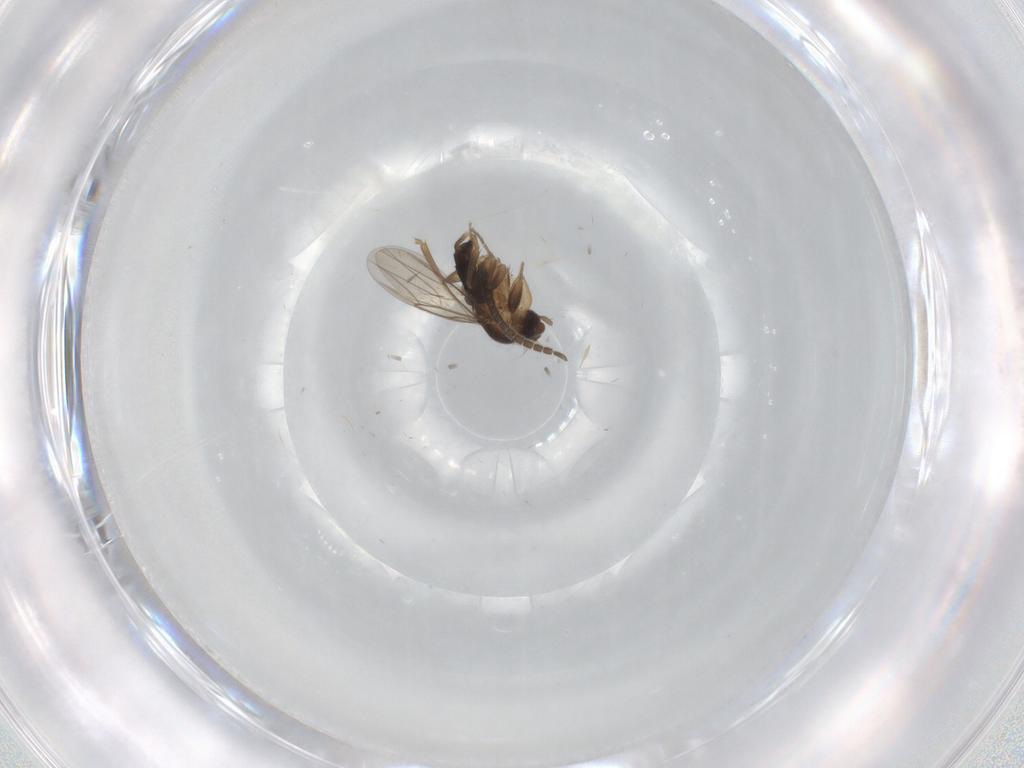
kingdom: Animalia
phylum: Arthropoda
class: Insecta
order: Diptera
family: Phoridae
